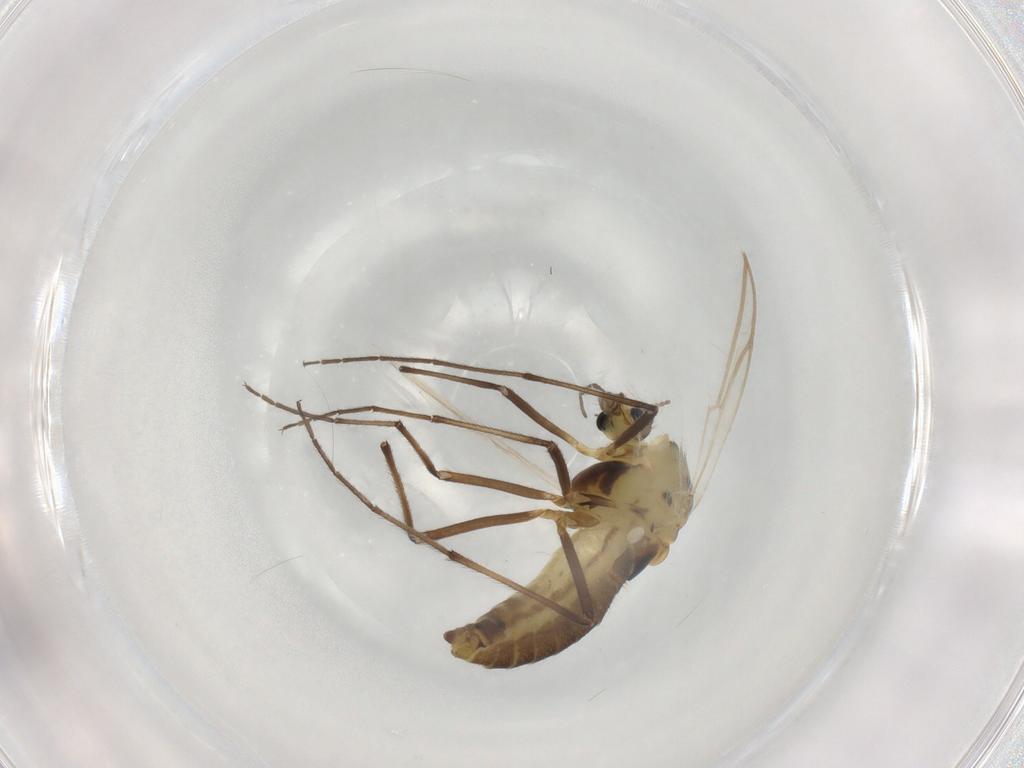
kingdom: Animalia
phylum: Arthropoda
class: Insecta
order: Diptera
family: Chironomidae
